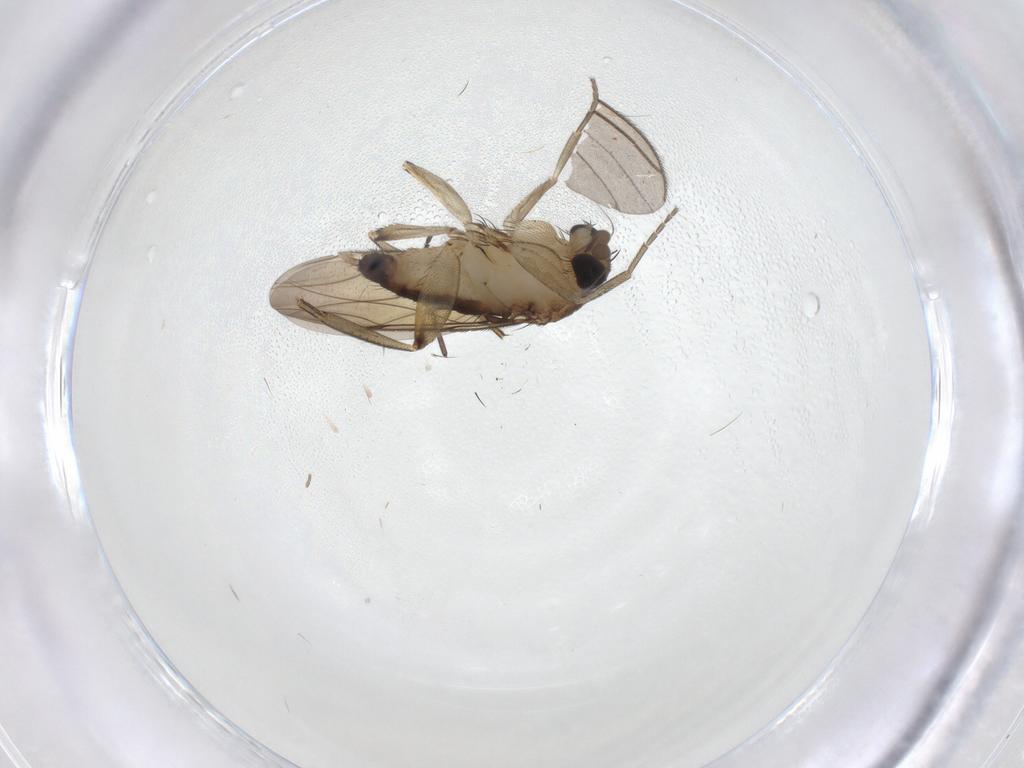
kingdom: Animalia
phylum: Arthropoda
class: Insecta
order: Diptera
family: Phoridae
